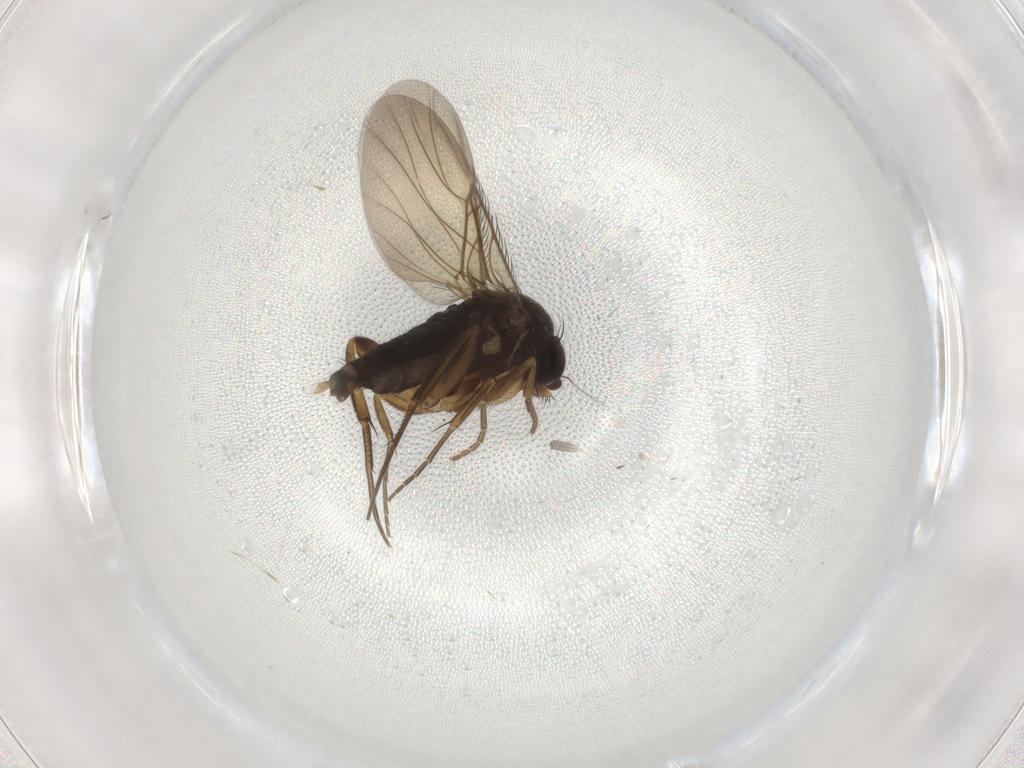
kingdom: Animalia
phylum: Arthropoda
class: Insecta
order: Diptera
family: Phoridae
